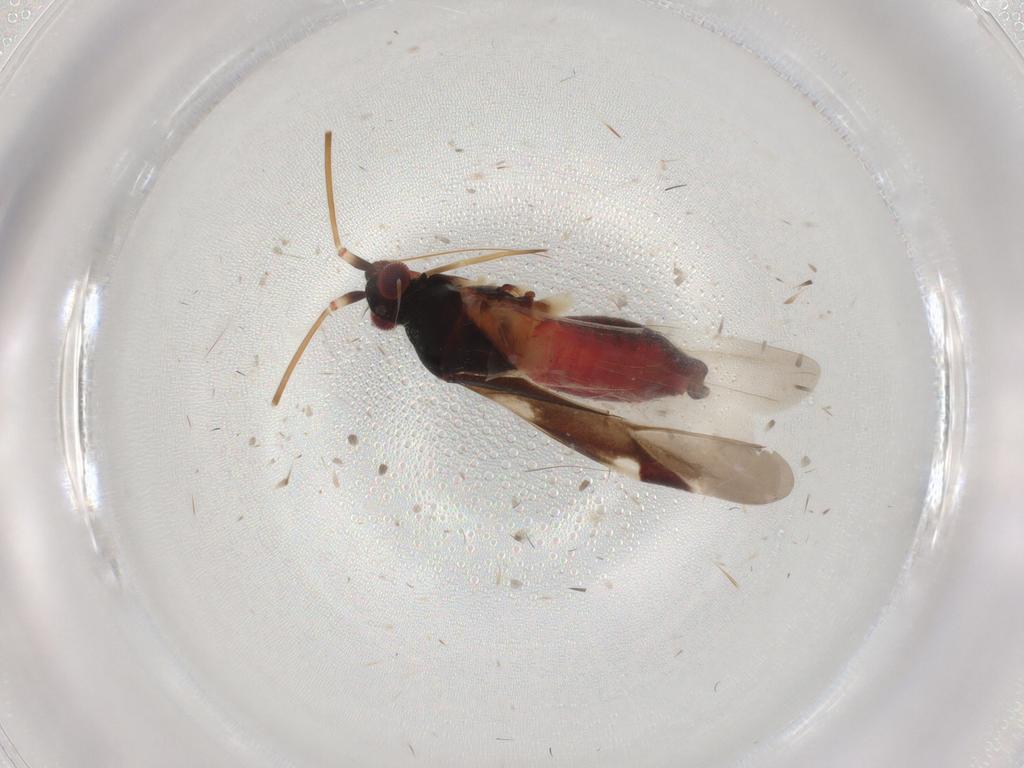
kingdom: Animalia
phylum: Arthropoda
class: Insecta
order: Hemiptera
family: Miridae
